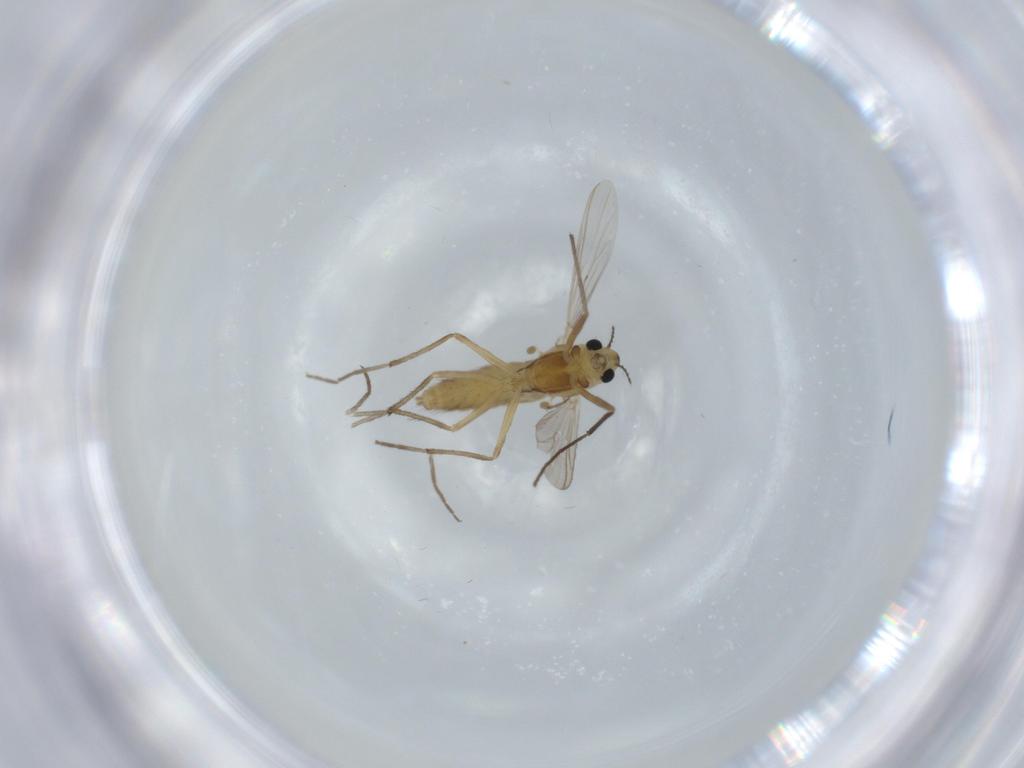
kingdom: Animalia
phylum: Arthropoda
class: Insecta
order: Diptera
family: Chironomidae
